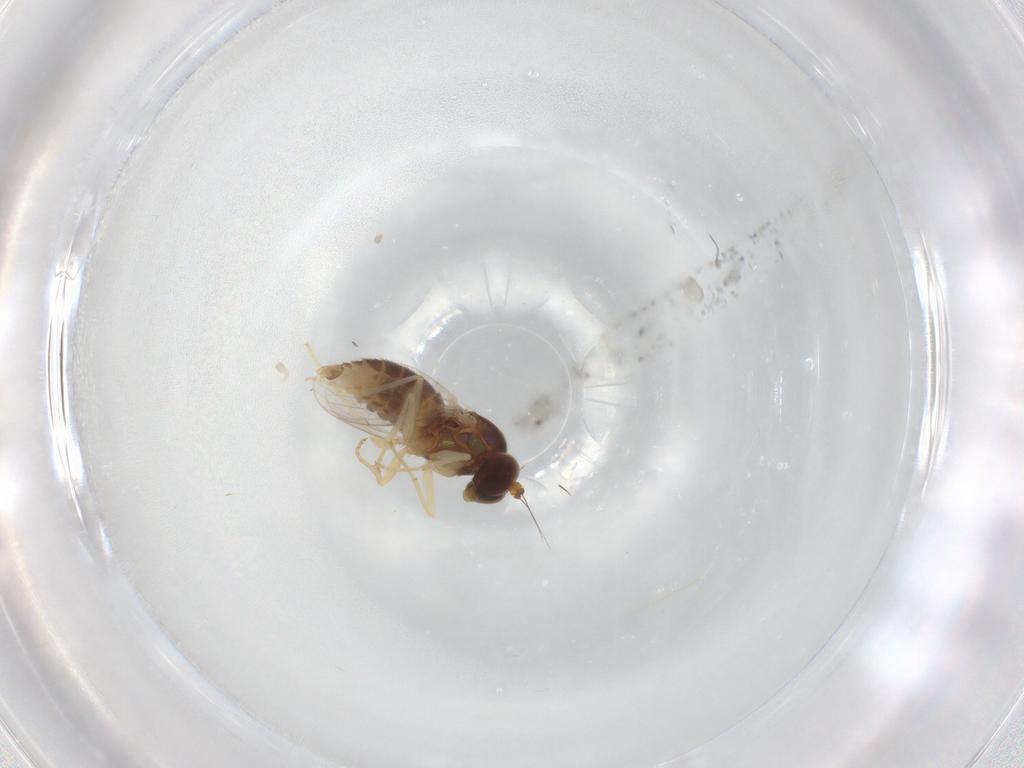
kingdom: Animalia
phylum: Arthropoda
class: Insecta
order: Diptera
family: Dolichopodidae
